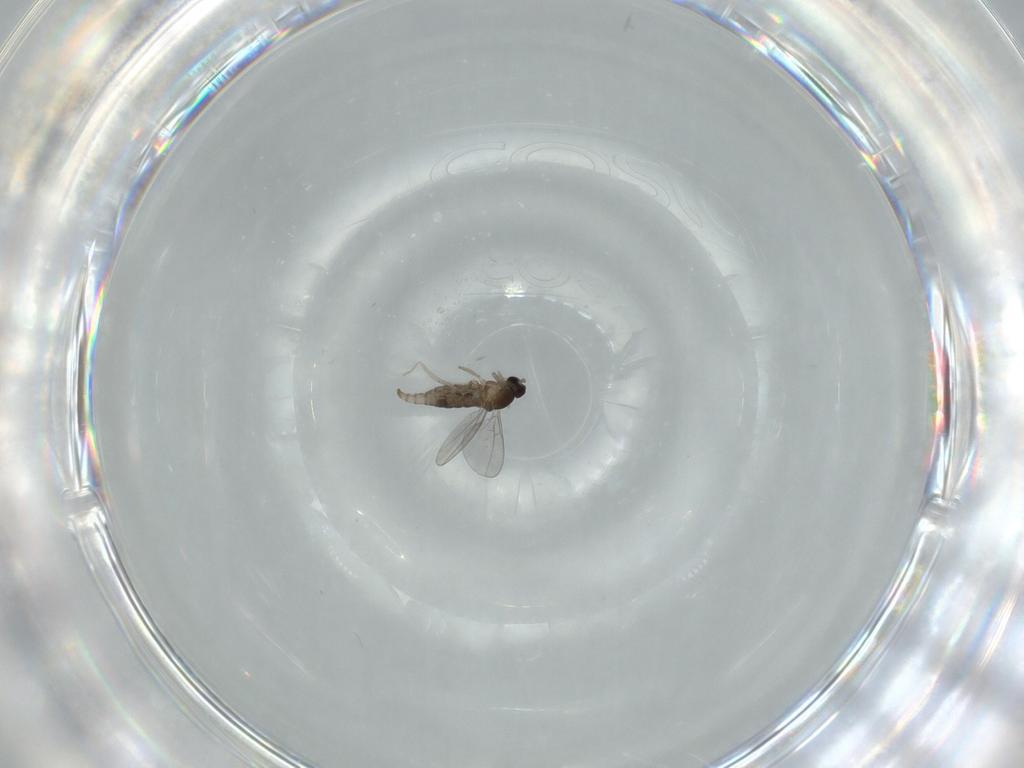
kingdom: Animalia
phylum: Arthropoda
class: Insecta
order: Diptera
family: Cecidomyiidae
